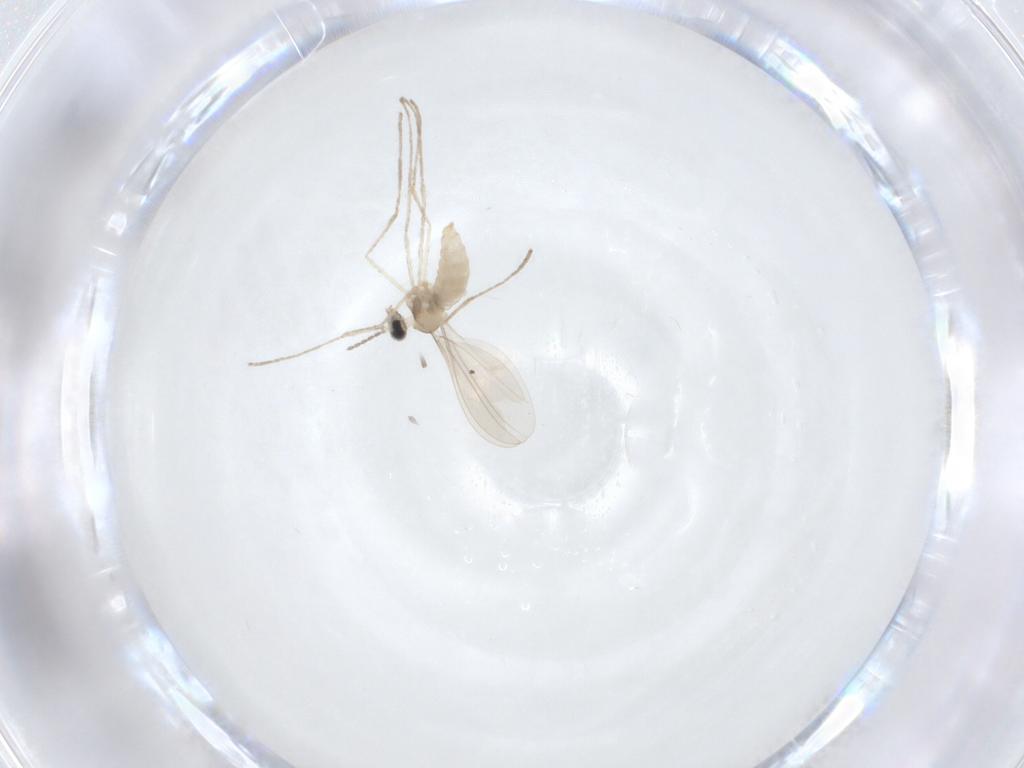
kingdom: Animalia
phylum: Arthropoda
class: Insecta
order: Diptera
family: Cecidomyiidae
